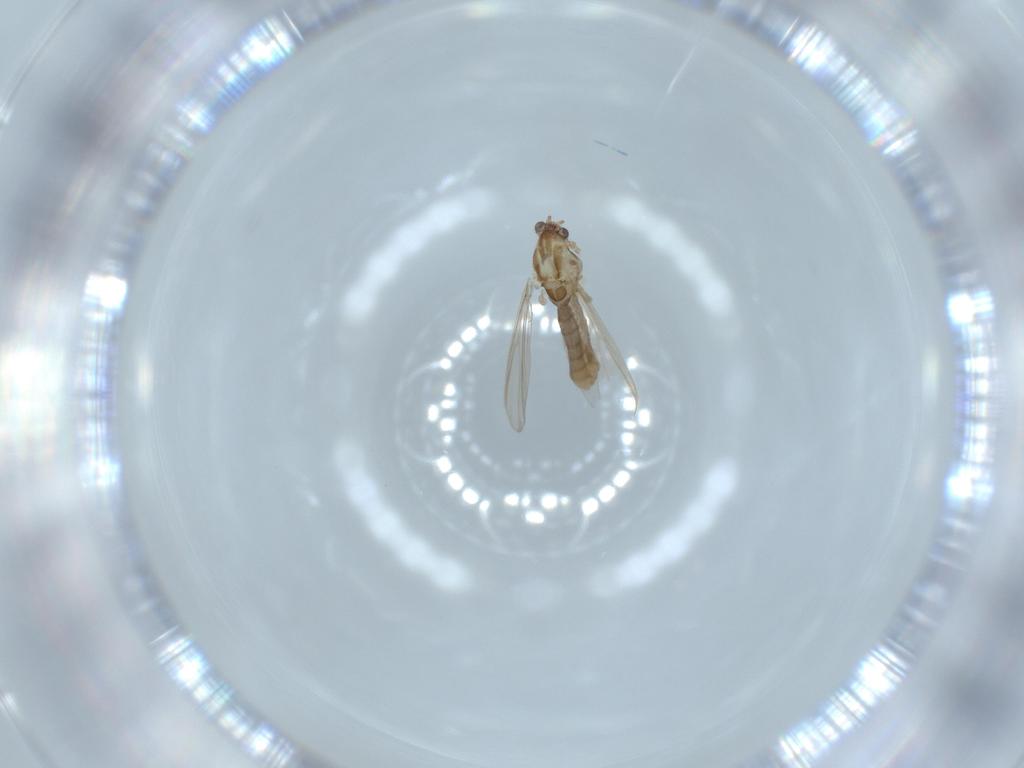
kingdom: Animalia
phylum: Arthropoda
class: Insecta
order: Diptera
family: Chironomidae
